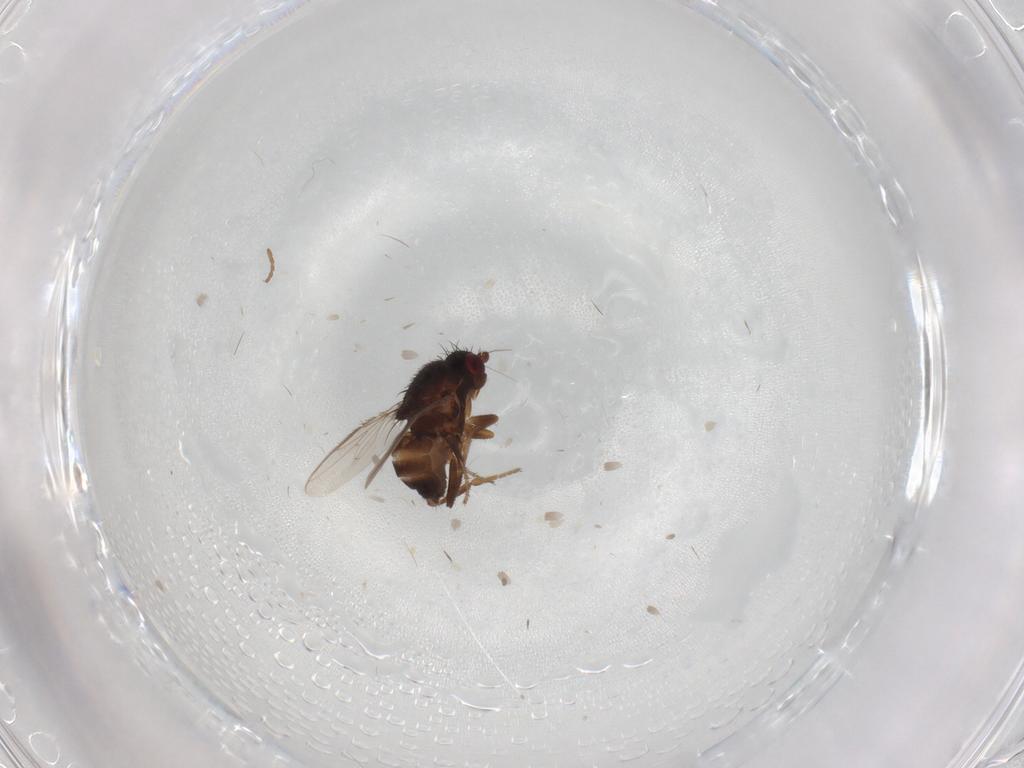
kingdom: Animalia
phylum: Arthropoda
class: Insecta
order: Diptera
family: Sphaeroceridae
